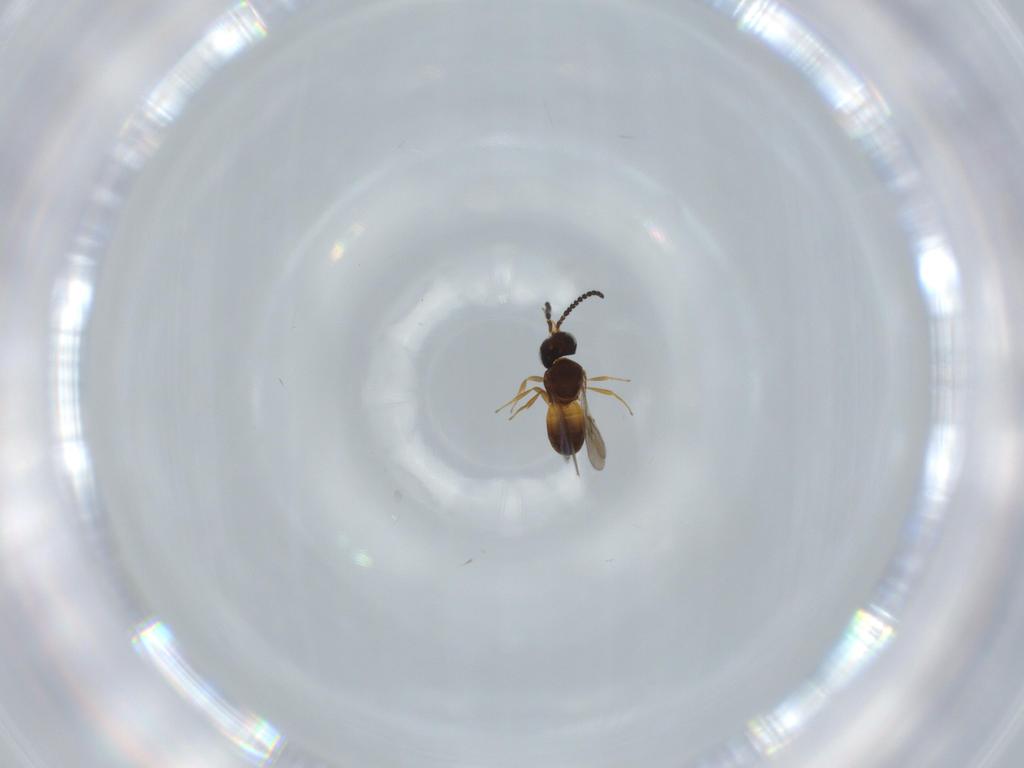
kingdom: Animalia
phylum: Arthropoda
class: Insecta
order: Hymenoptera
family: Scelionidae
